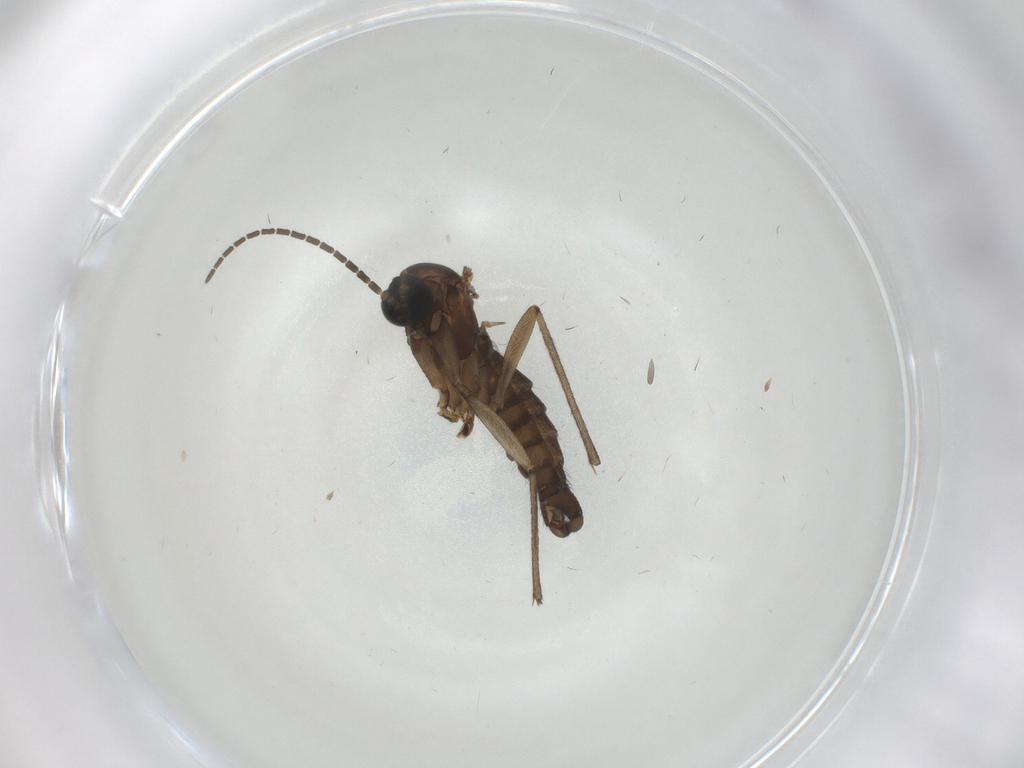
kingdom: Animalia
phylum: Arthropoda
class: Insecta
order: Diptera
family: Sciaridae
